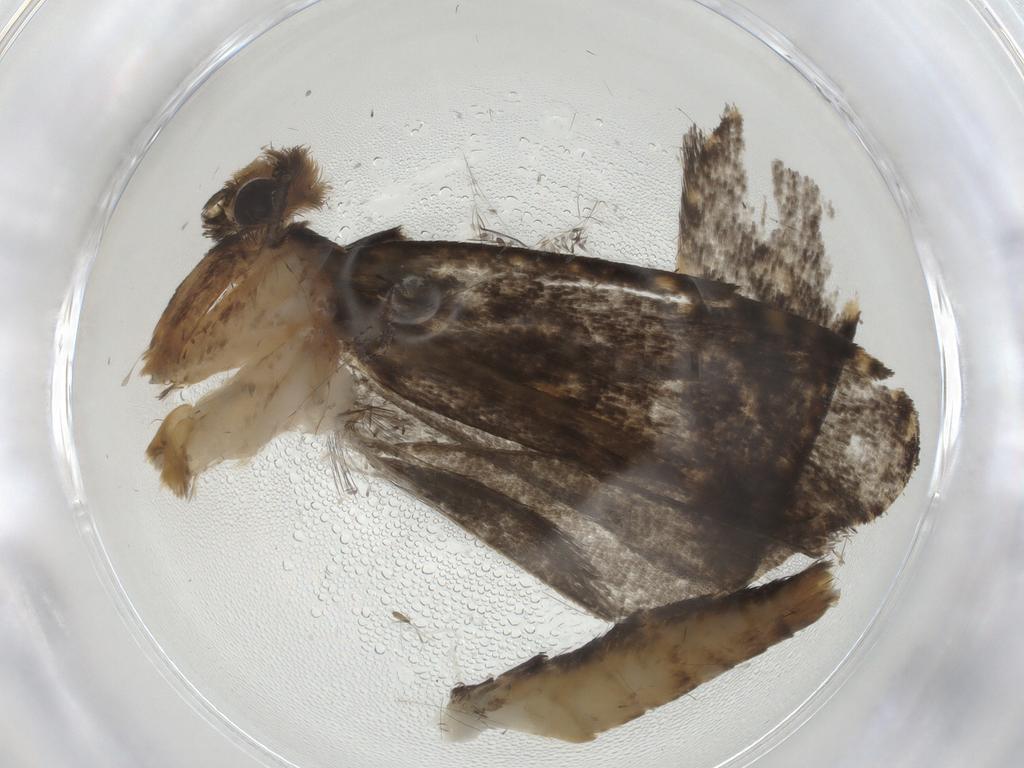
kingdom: Animalia
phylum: Arthropoda
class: Insecta
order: Lepidoptera
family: Tineidae
